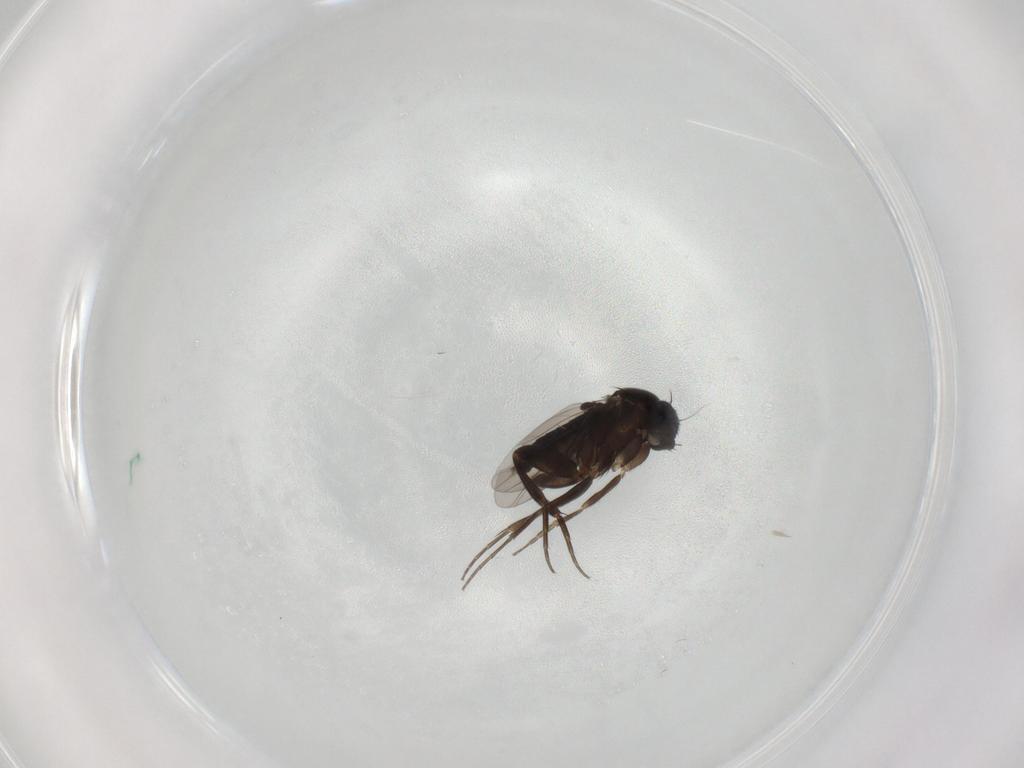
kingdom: Animalia
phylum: Arthropoda
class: Insecta
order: Diptera
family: Phoridae
